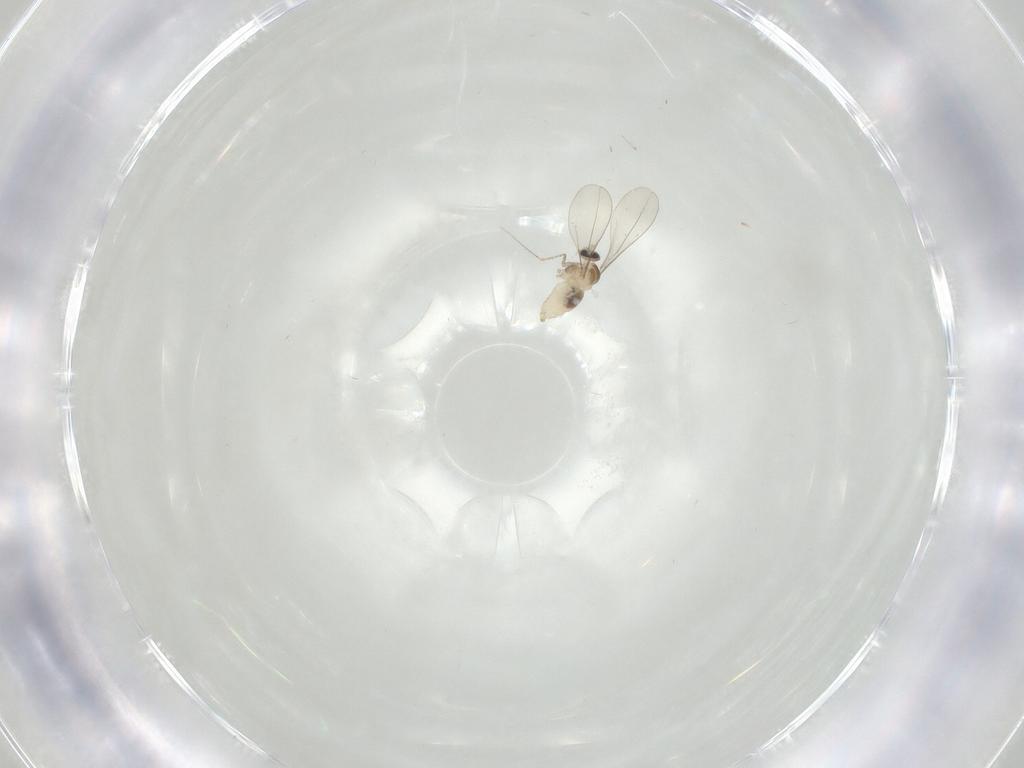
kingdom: Animalia
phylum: Arthropoda
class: Insecta
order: Diptera
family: Cecidomyiidae
